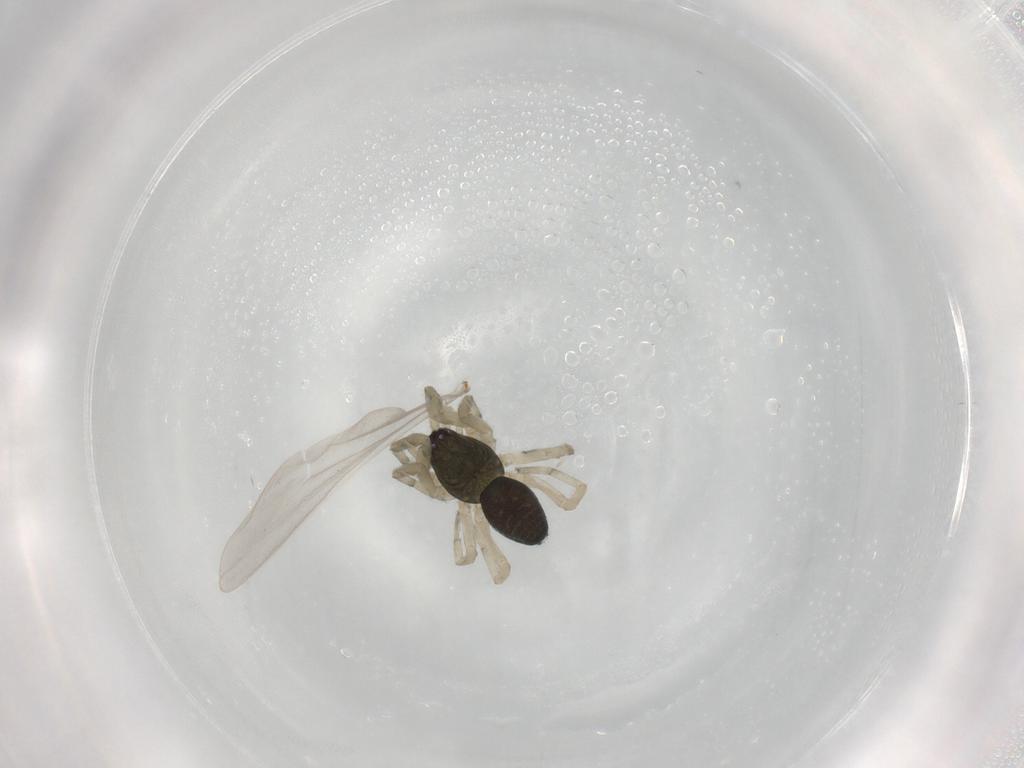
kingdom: Animalia
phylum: Arthropoda
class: Arachnida
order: Araneae
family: Trachelidae
